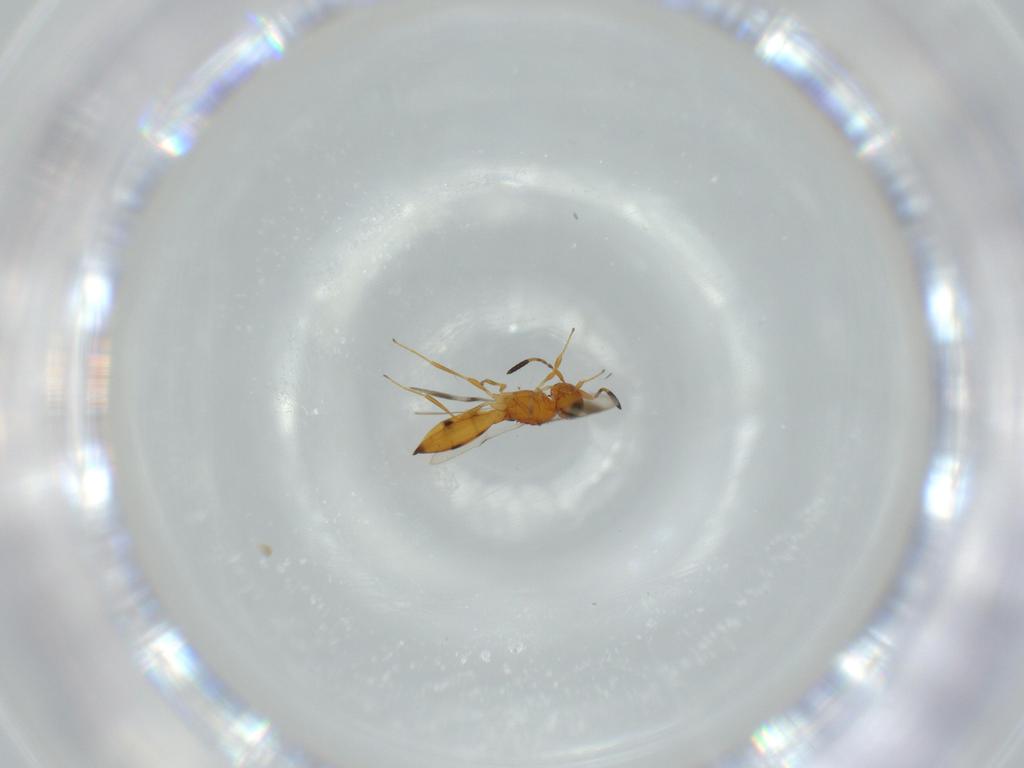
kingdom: Animalia
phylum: Arthropoda
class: Insecta
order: Hymenoptera
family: Scelionidae
